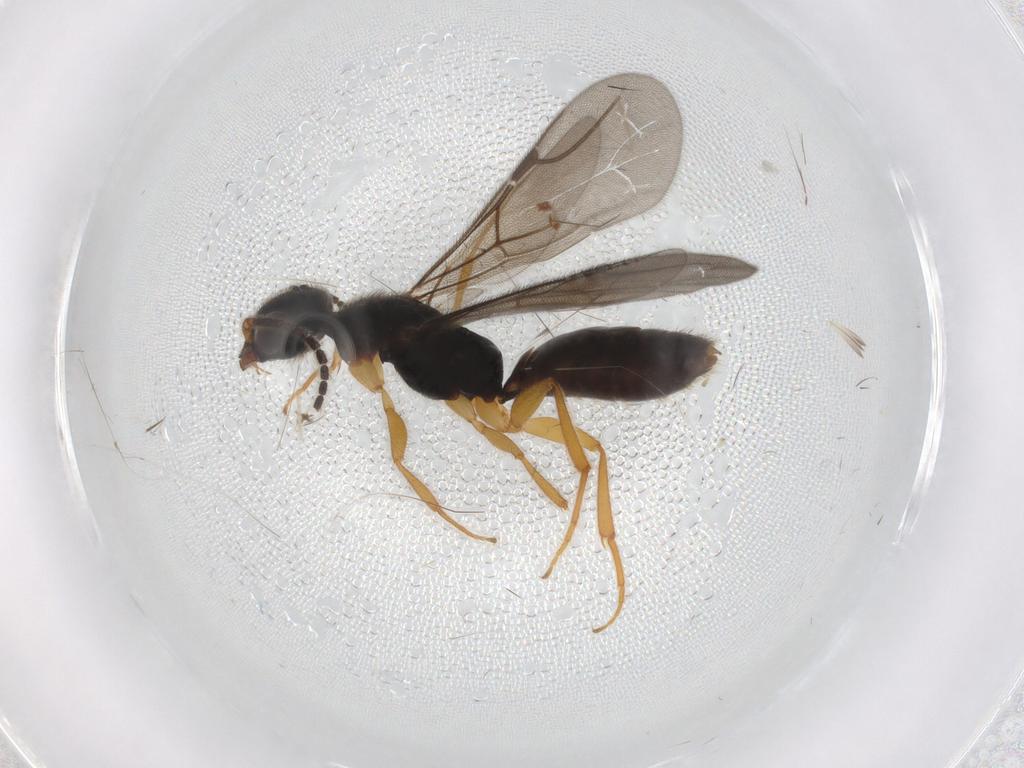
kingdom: Animalia
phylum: Arthropoda
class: Insecta
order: Hymenoptera
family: Bethylidae
